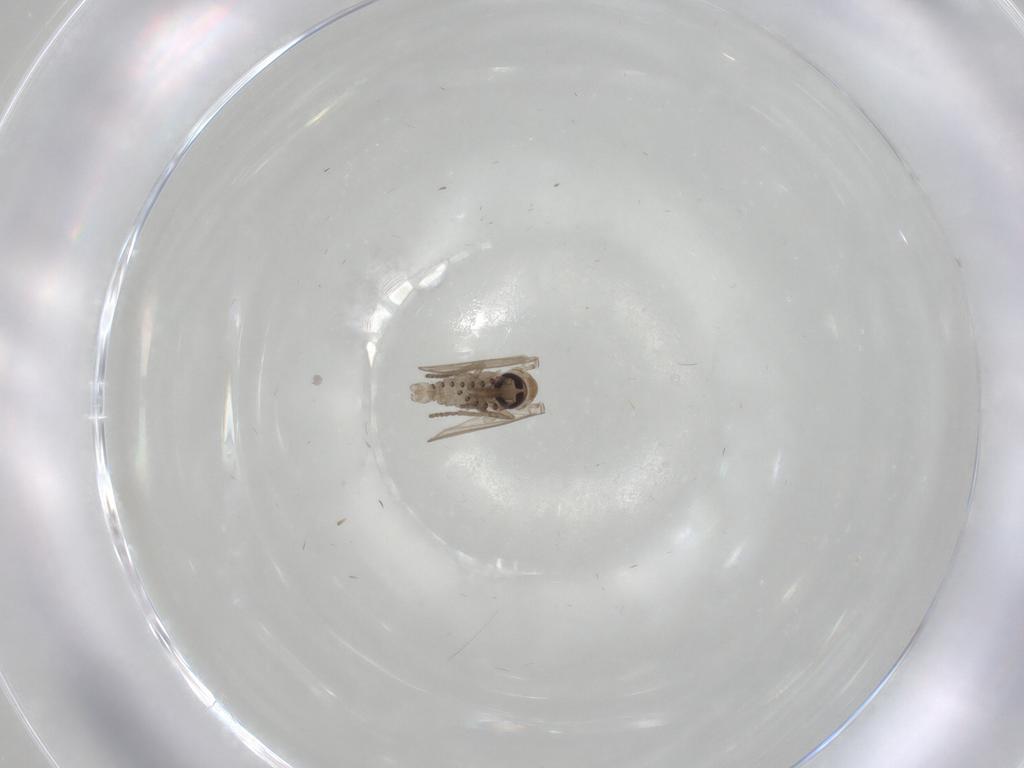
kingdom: Animalia
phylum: Arthropoda
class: Insecta
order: Diptera
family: Psychodidae
